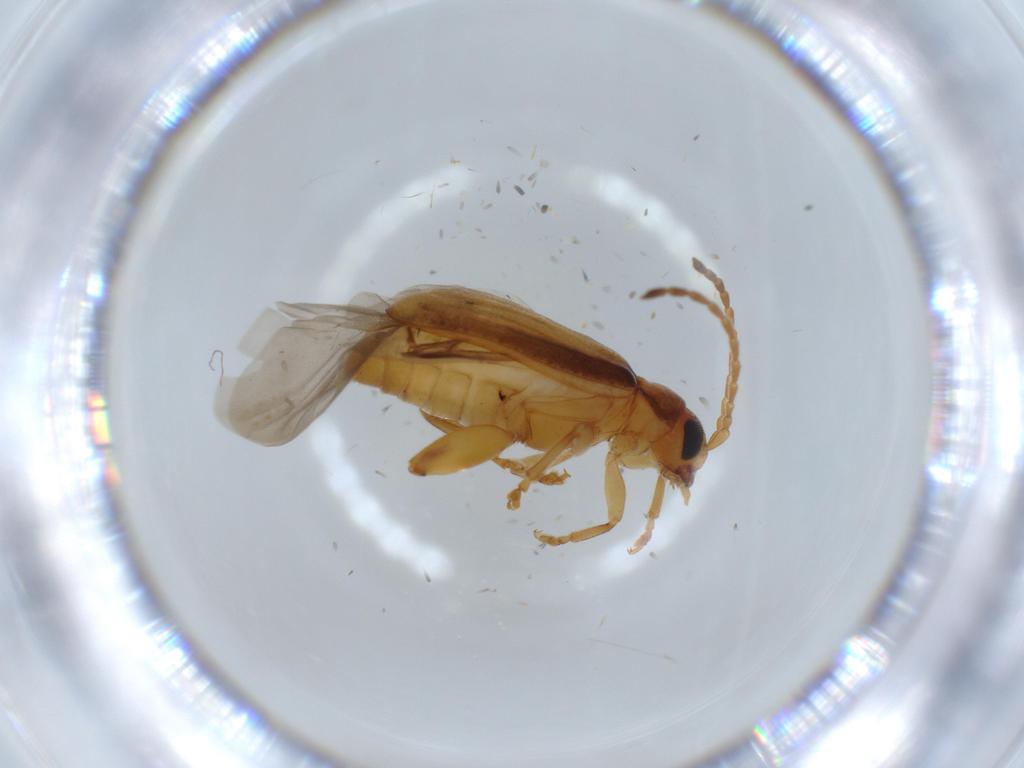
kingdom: Animalia
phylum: Arthropoda
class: Insecta
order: Coleoptera
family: Chrysomelidae
